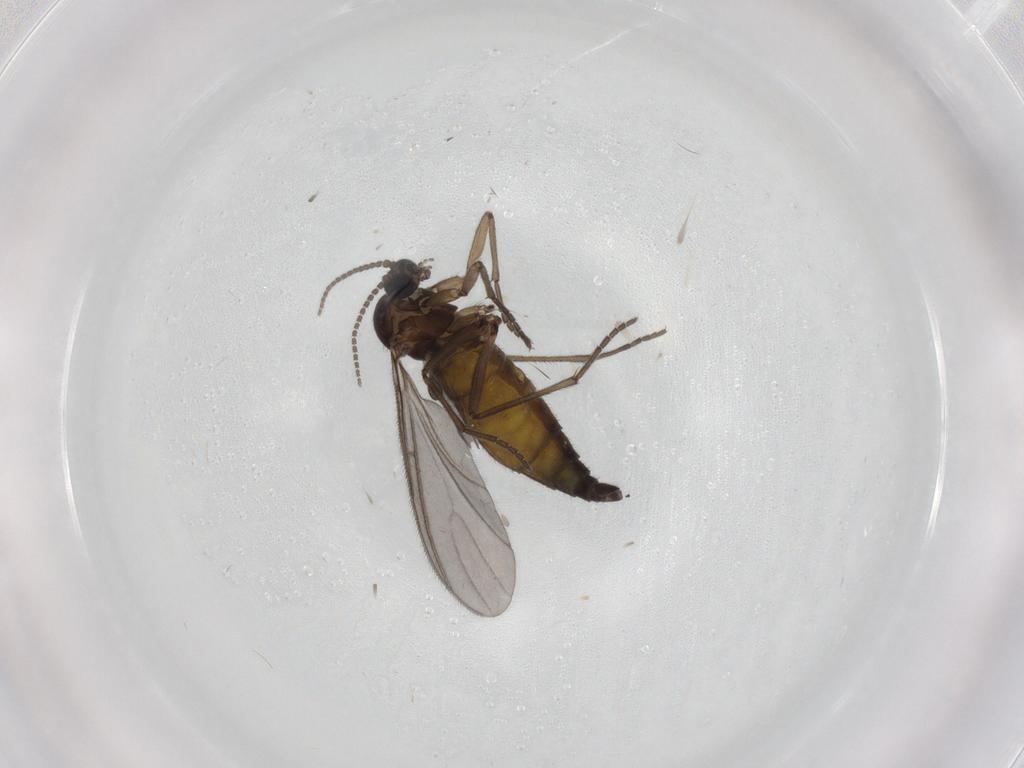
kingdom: Animalia
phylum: Arthropoda
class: Insecta
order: Diptera
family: Sciaridae
